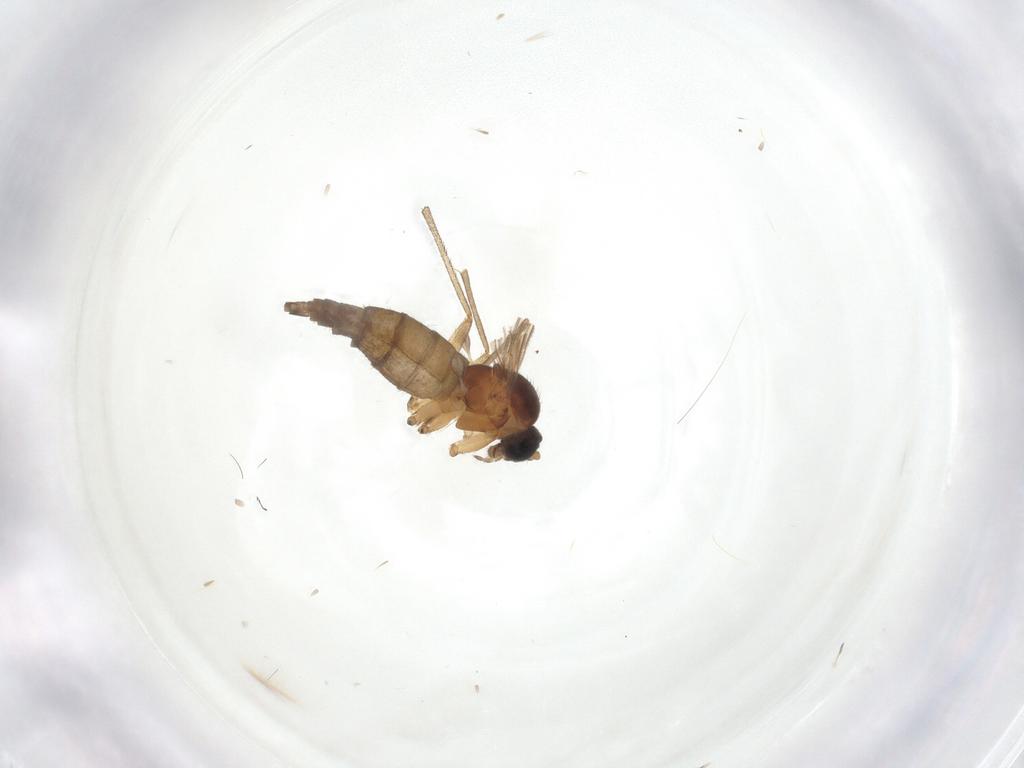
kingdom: Animalia
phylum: Arthropoda
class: Insecta
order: Diptera
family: Sciaridae
